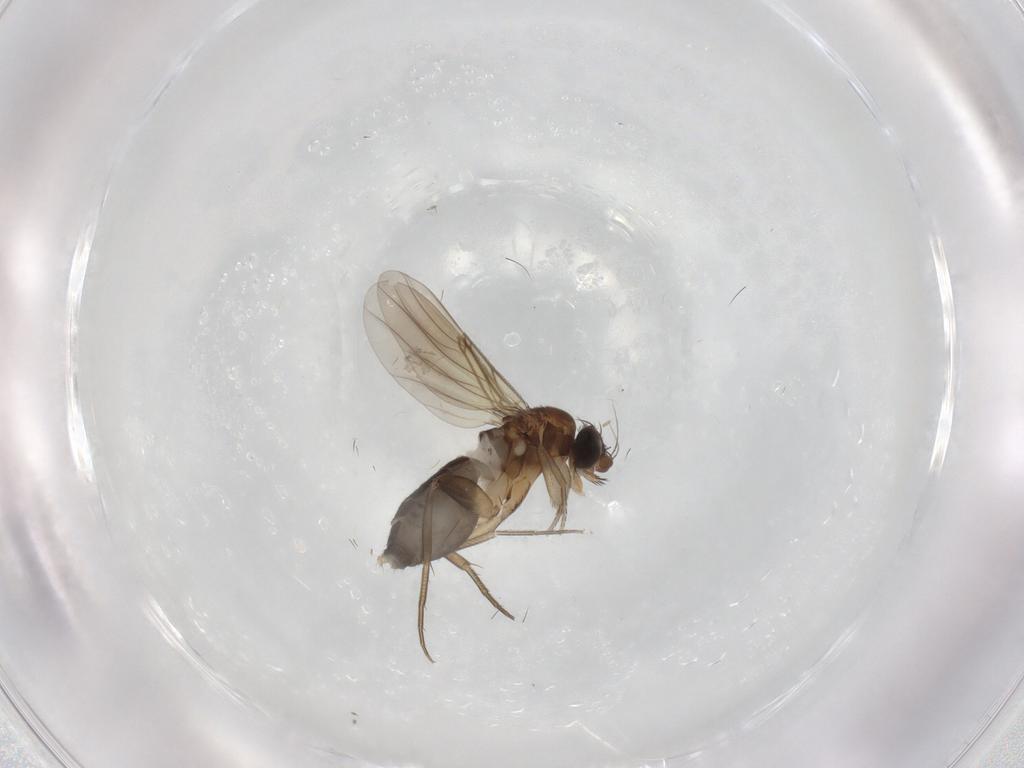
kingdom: Animalia
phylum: Arthropoda
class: Insecta
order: Diptera
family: Phoridae
